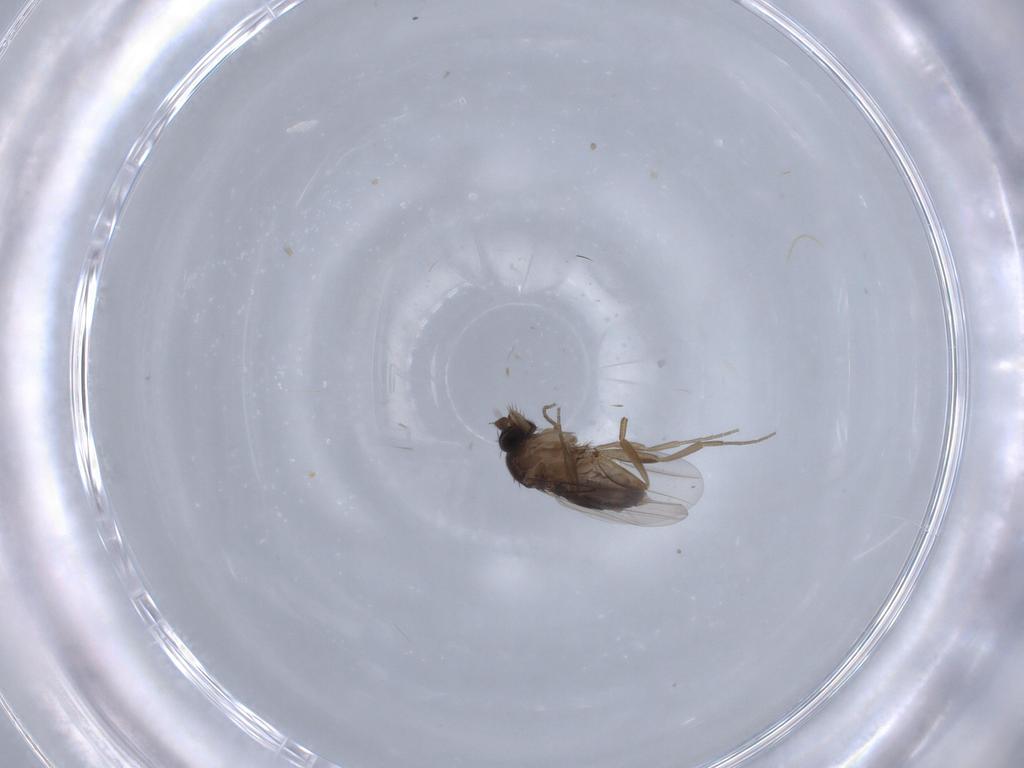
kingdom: Animalia
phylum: Arthropoda
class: Insecta
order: Diptera
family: Phoridae
